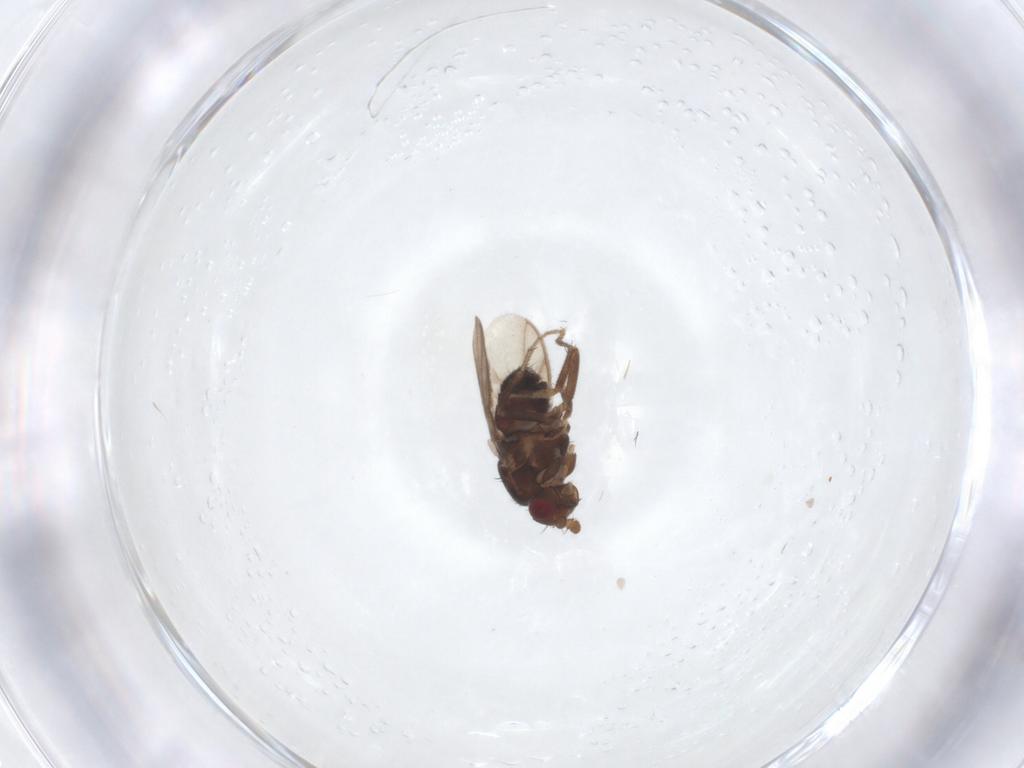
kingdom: Animalia
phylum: Arthropoda
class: Insecta
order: Diptera
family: Sphaeroceridae
